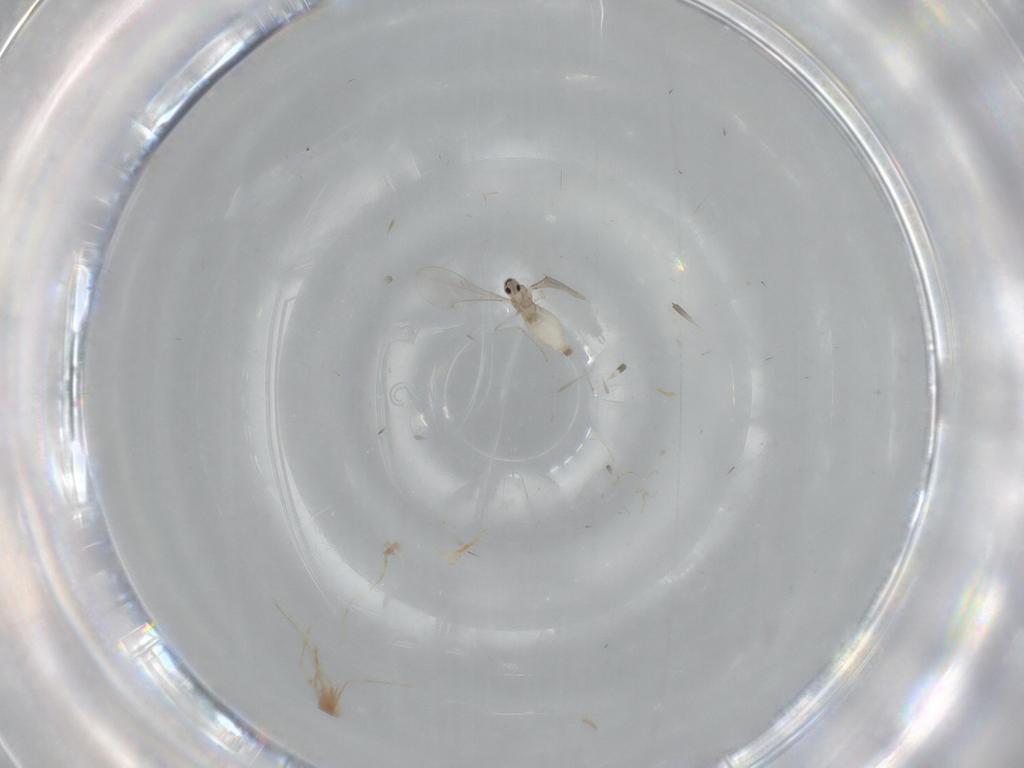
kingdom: Animalia
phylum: Arthropoda
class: Insecta
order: Diptera
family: Cecidomyiidae
